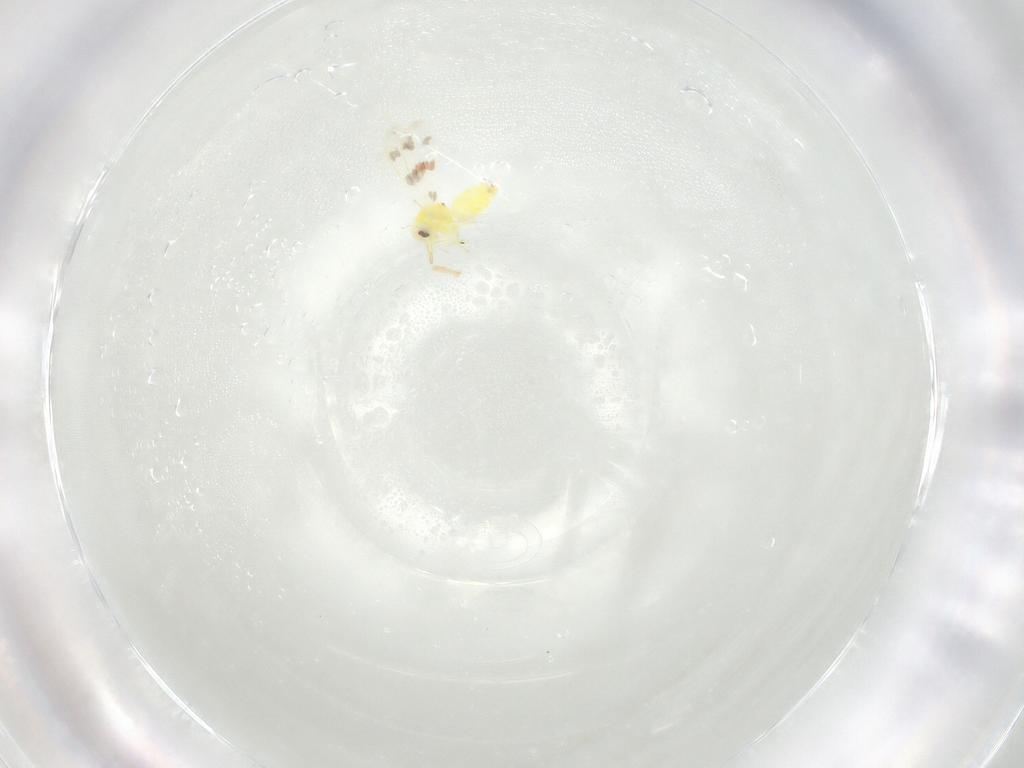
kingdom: Animalia
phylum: Arthropoda
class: Insecta
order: Hemiptera
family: Aleyrodidae
